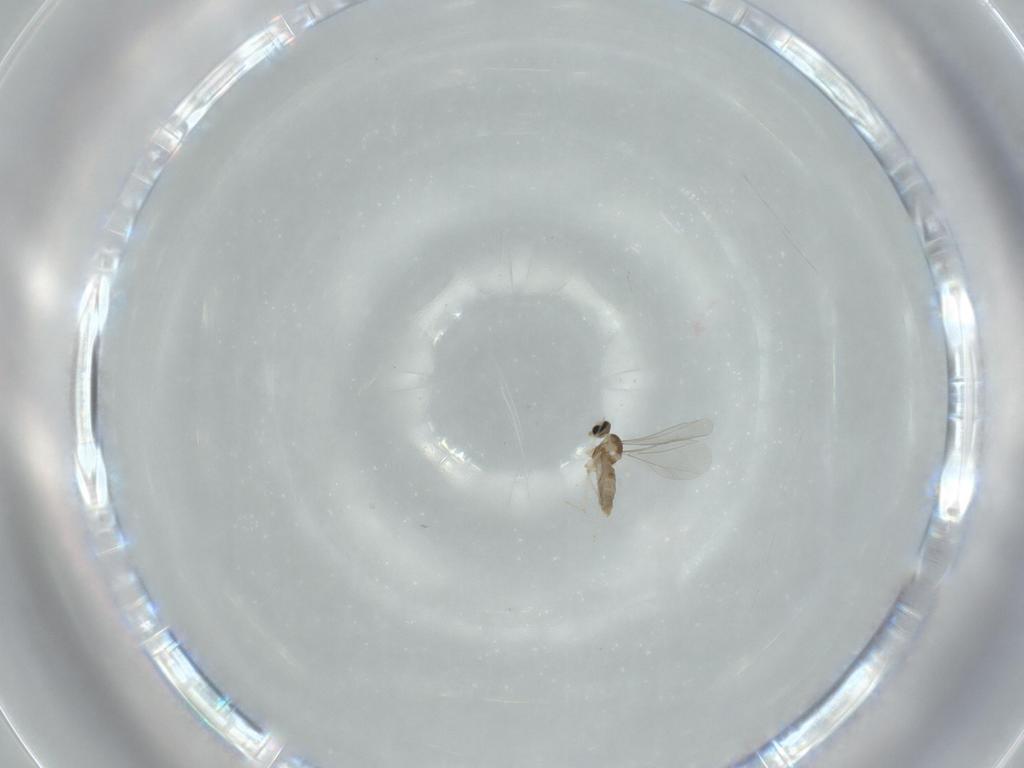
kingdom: Animalia
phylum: Arthropoda
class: Insecta
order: Diptera
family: Cecidomyiidae
